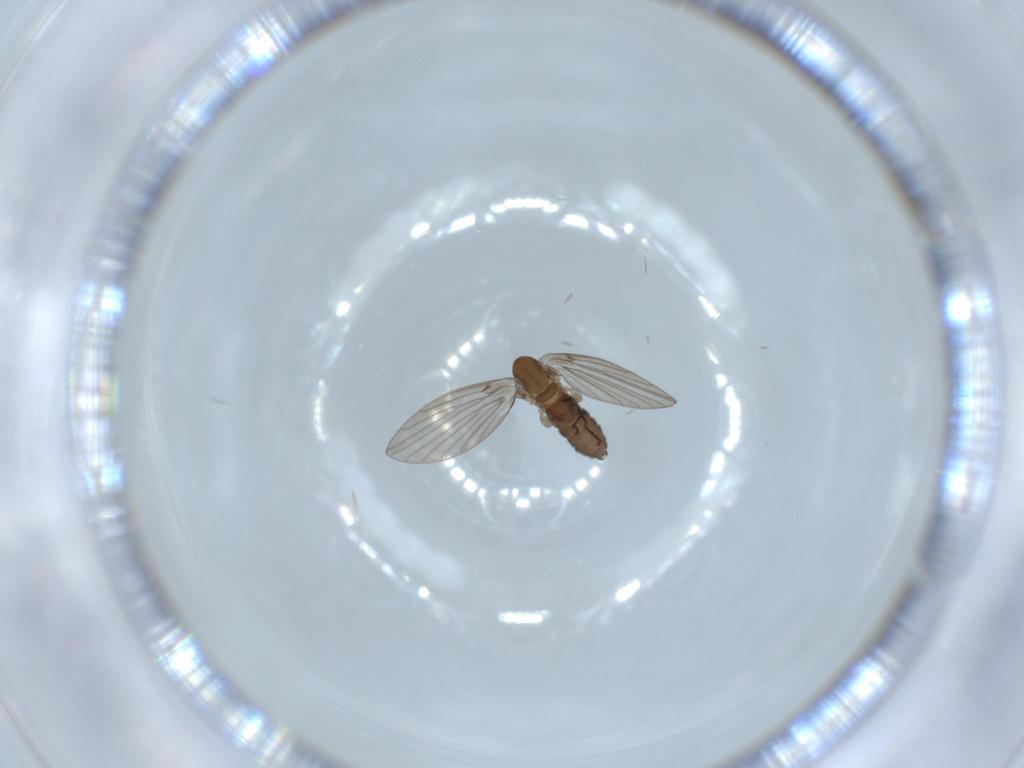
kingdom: Animalia
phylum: Arthropoda
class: Insecta
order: Diptera
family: Psychodidae
